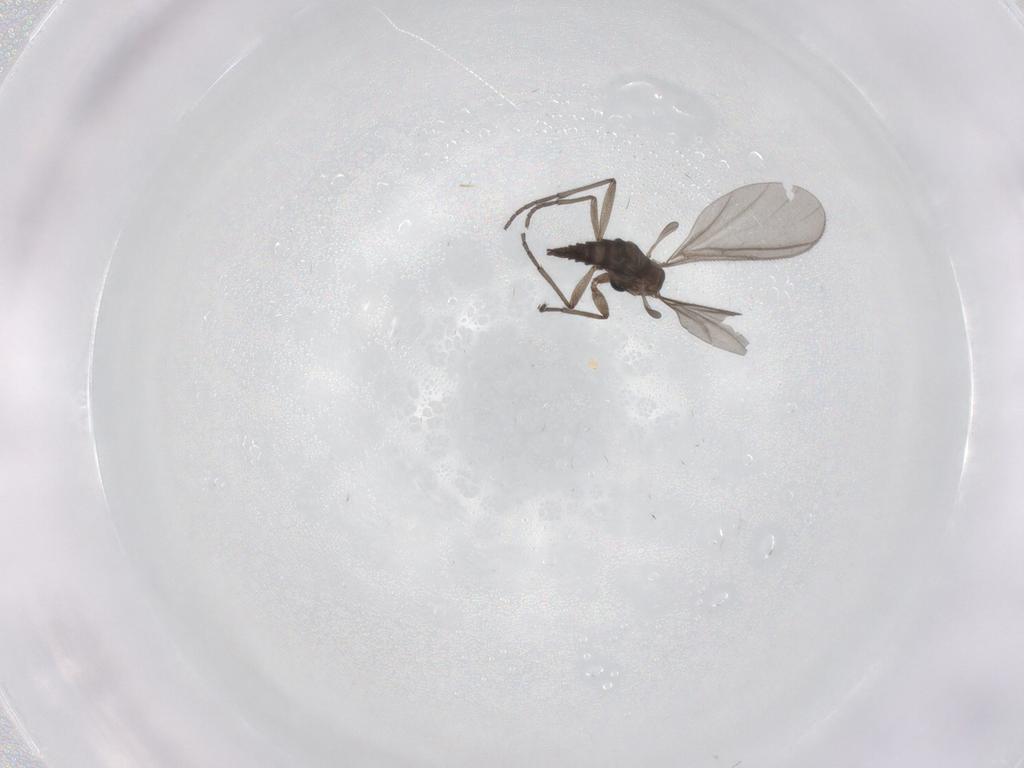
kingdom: Animalia
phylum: Arthropoda
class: Insecta
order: Diptera
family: Sciaridae
